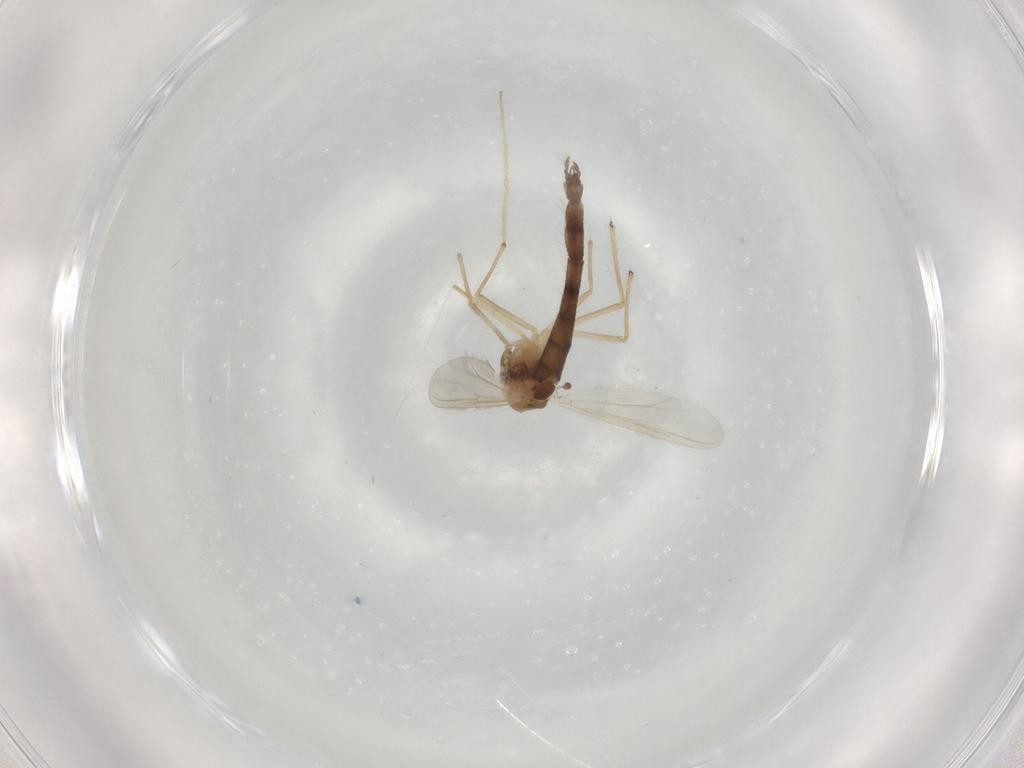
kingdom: Animalia
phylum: Arthropoda
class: Insecta
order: Diptera
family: Chironomidae
